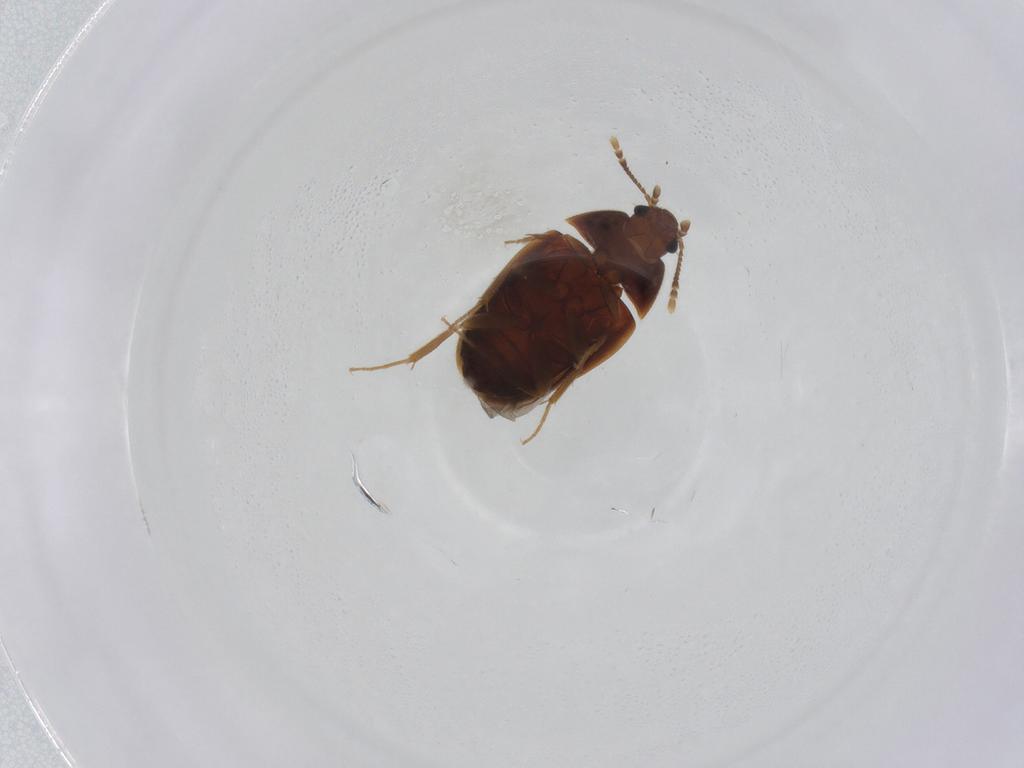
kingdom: Animalia
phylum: Arthropoda
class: Insecta
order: Coleoptera
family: Mycetophagidae
